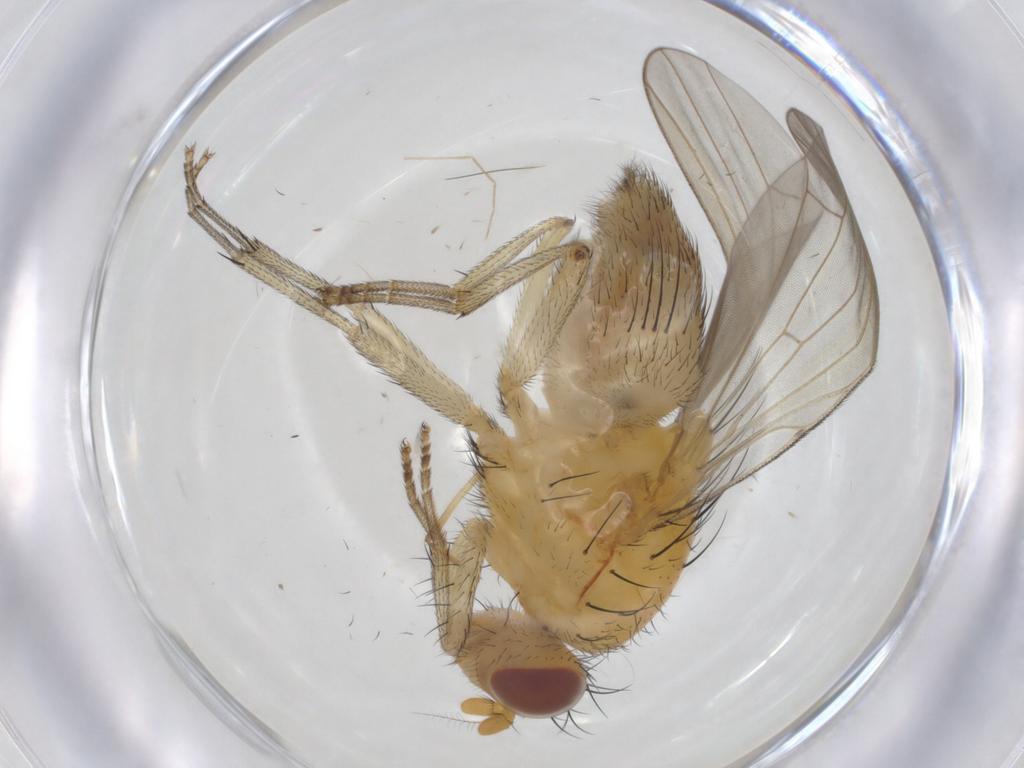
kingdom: Animalia
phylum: Arthropoda
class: Insecta
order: Diptera
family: Chironomidae
